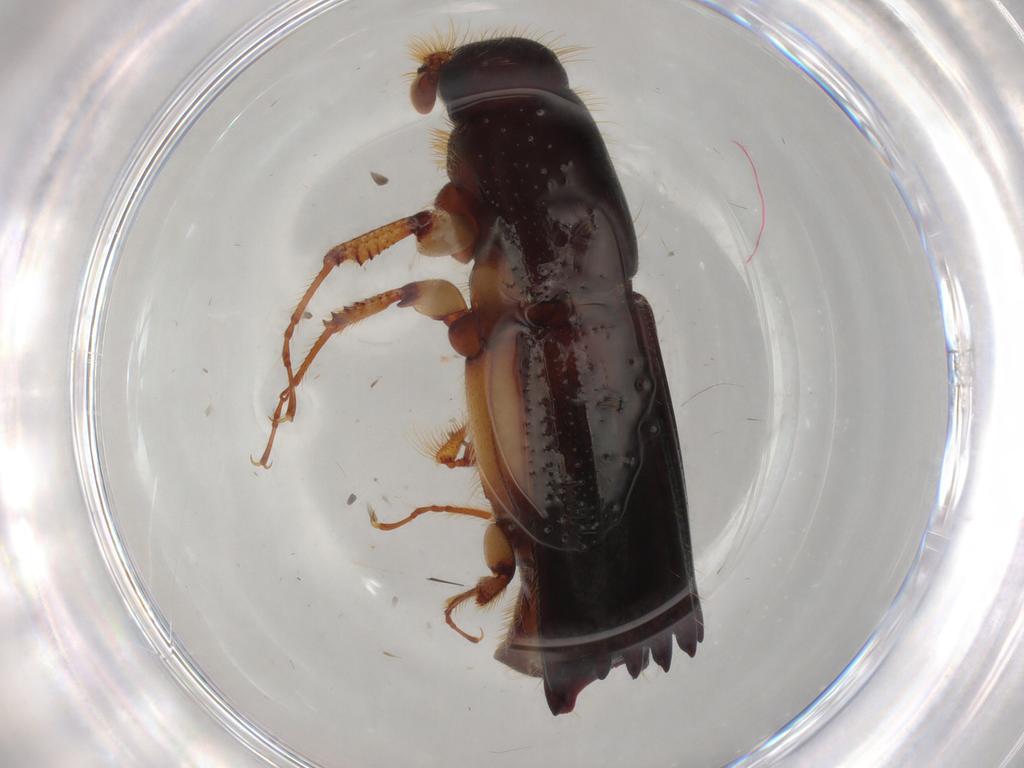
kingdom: Animalia
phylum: Arthropoda
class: Insecta
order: Coleoptera
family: Curculionidae
